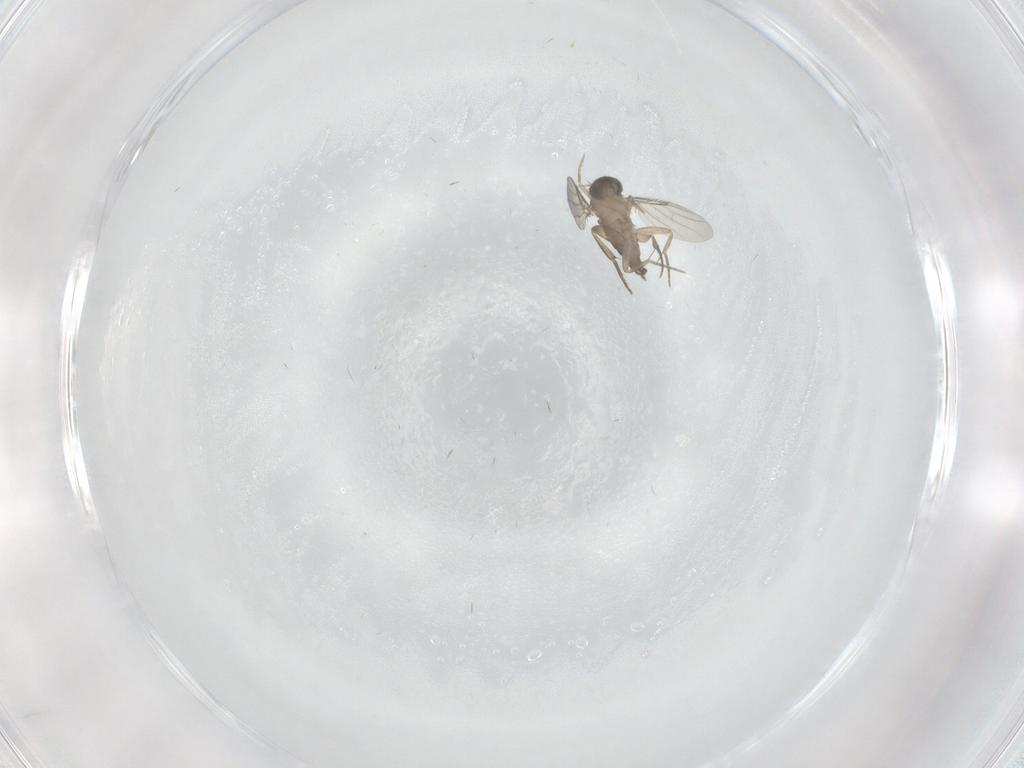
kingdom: Animalia
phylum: Arthropoda
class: Insecta
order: Diptera
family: Phoridae
